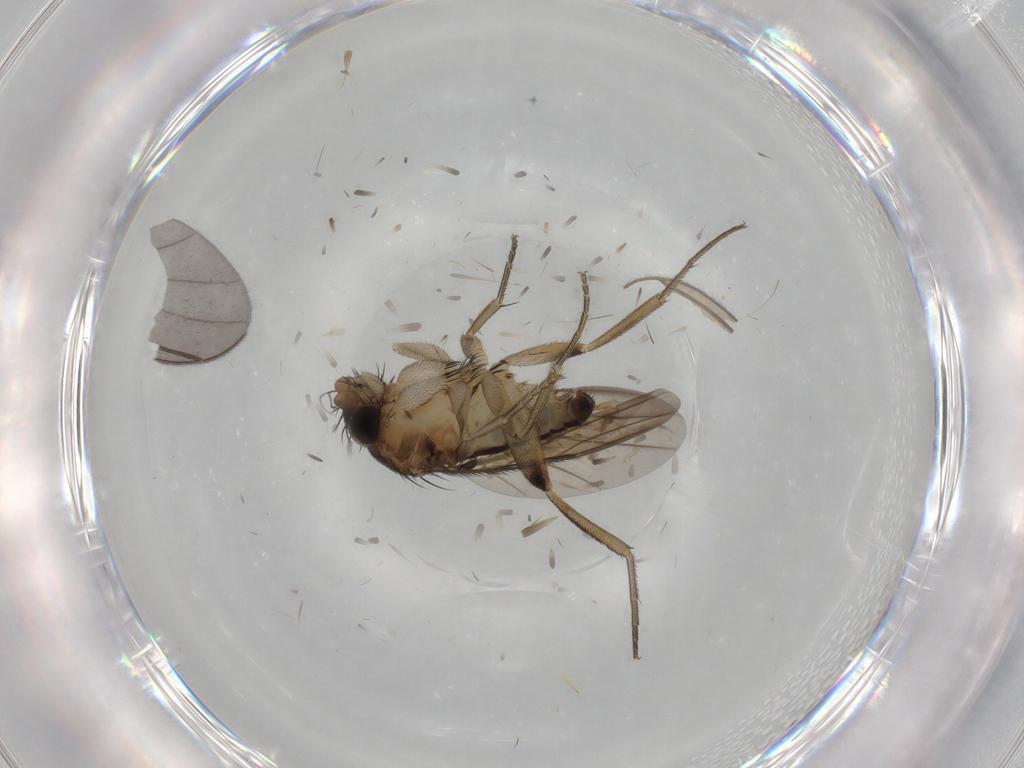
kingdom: Animalia
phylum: Arthropoda
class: Insecta
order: Diptera
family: Phoridae
